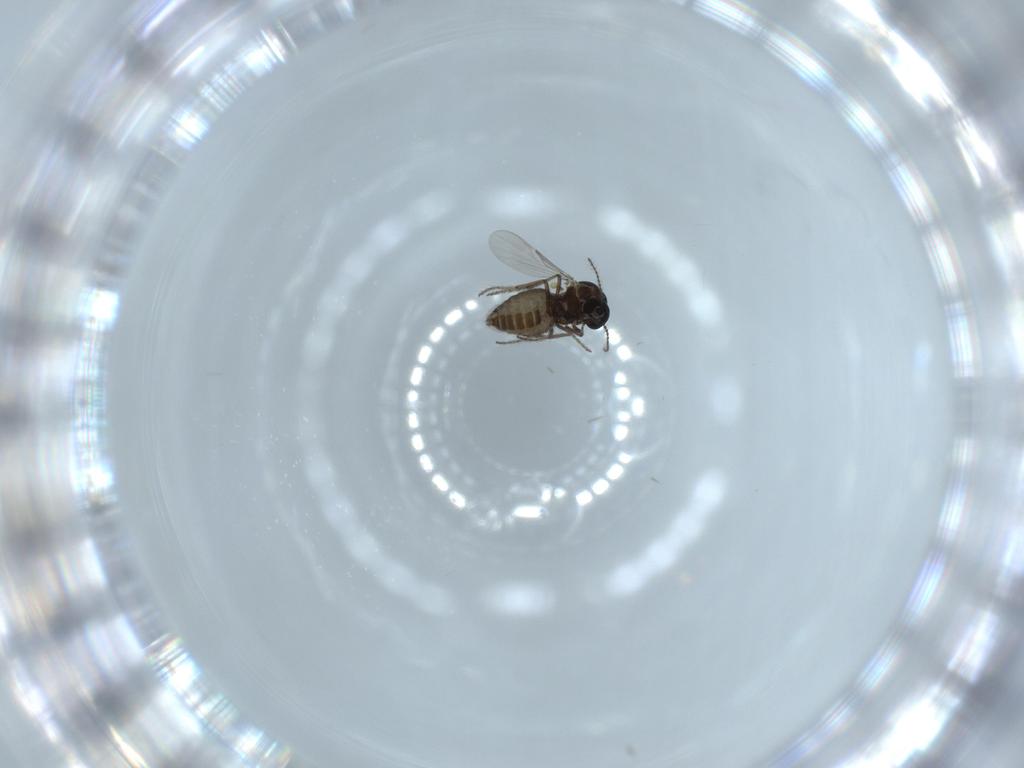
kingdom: Animalia
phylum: Arthropoda
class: Insecta
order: Diptera
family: Ceratopogonidae
